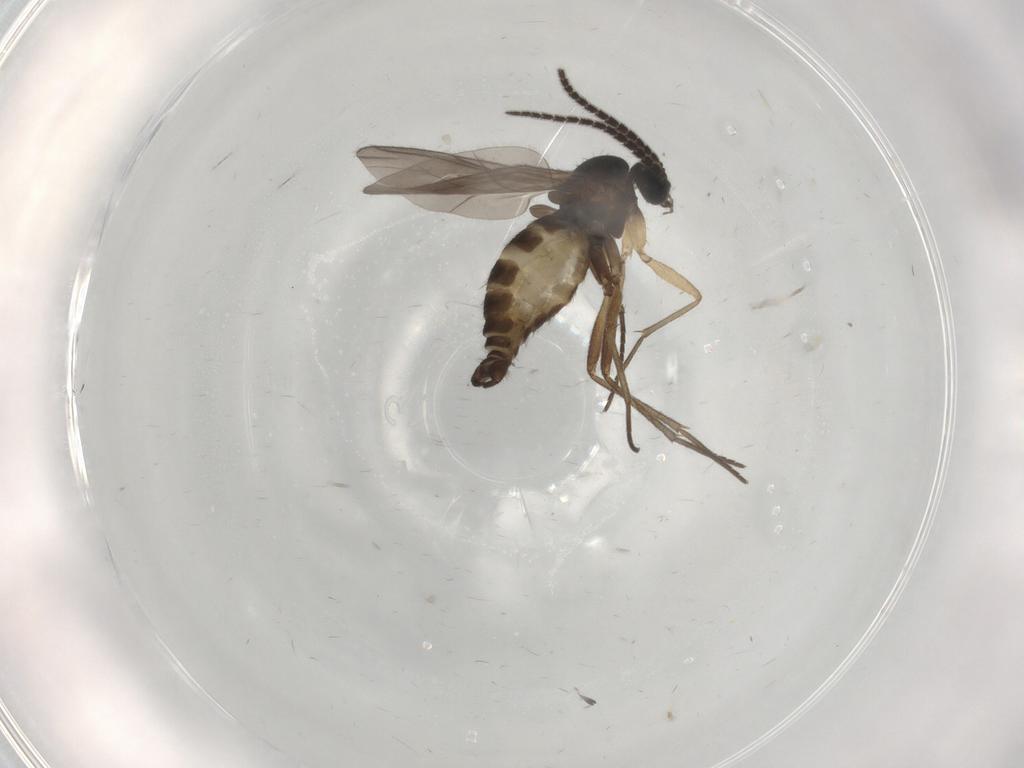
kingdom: Animalia
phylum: Arthropoda
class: Insecta
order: Diptera
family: Sciaridae
